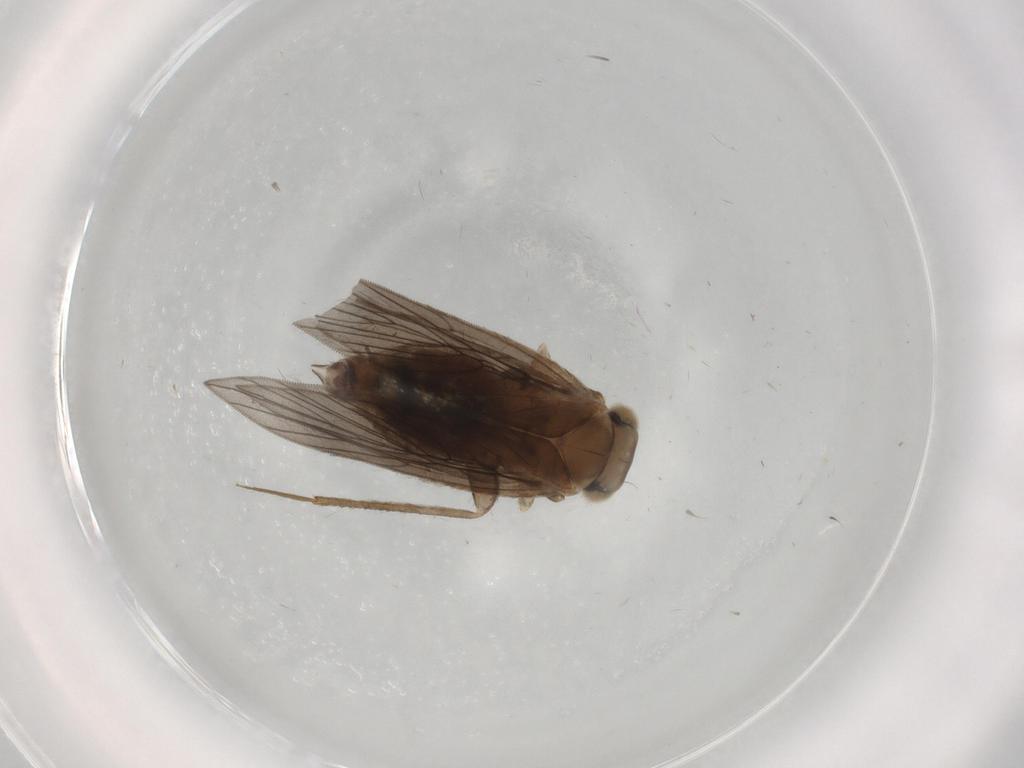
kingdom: Animalia
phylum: Arthropoda
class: Insecta
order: Psocodea
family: Lepidopsocidae
